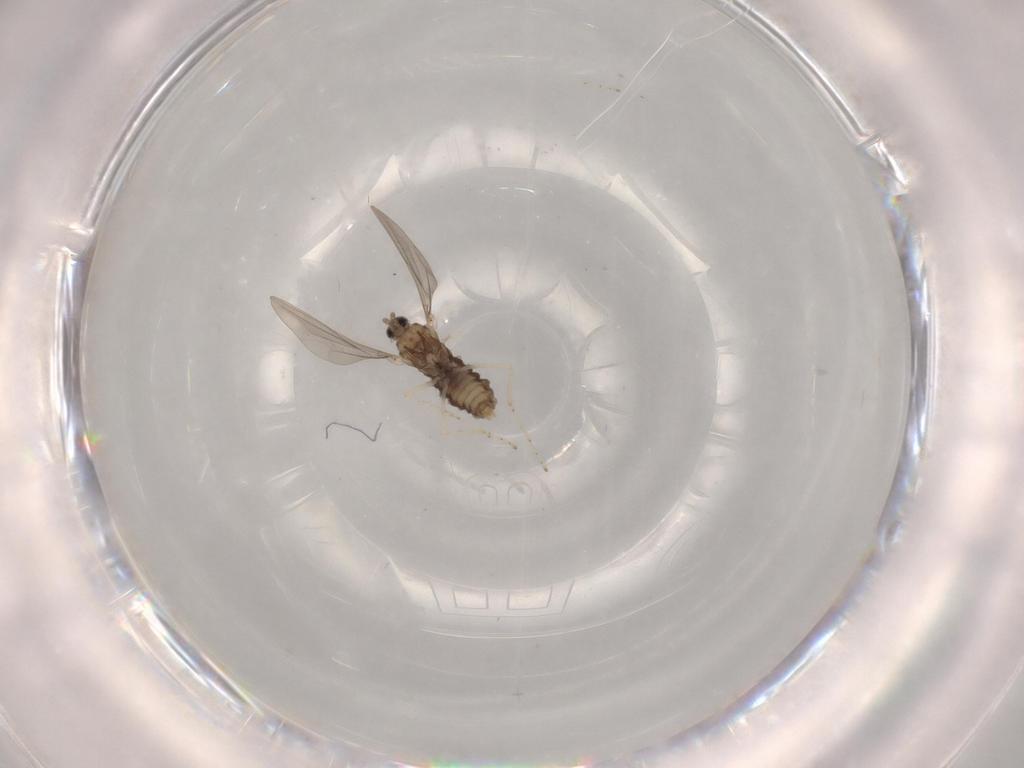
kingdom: Animalia
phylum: Arthropoda
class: Insecta
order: Diptera
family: Cecidomyiidae
